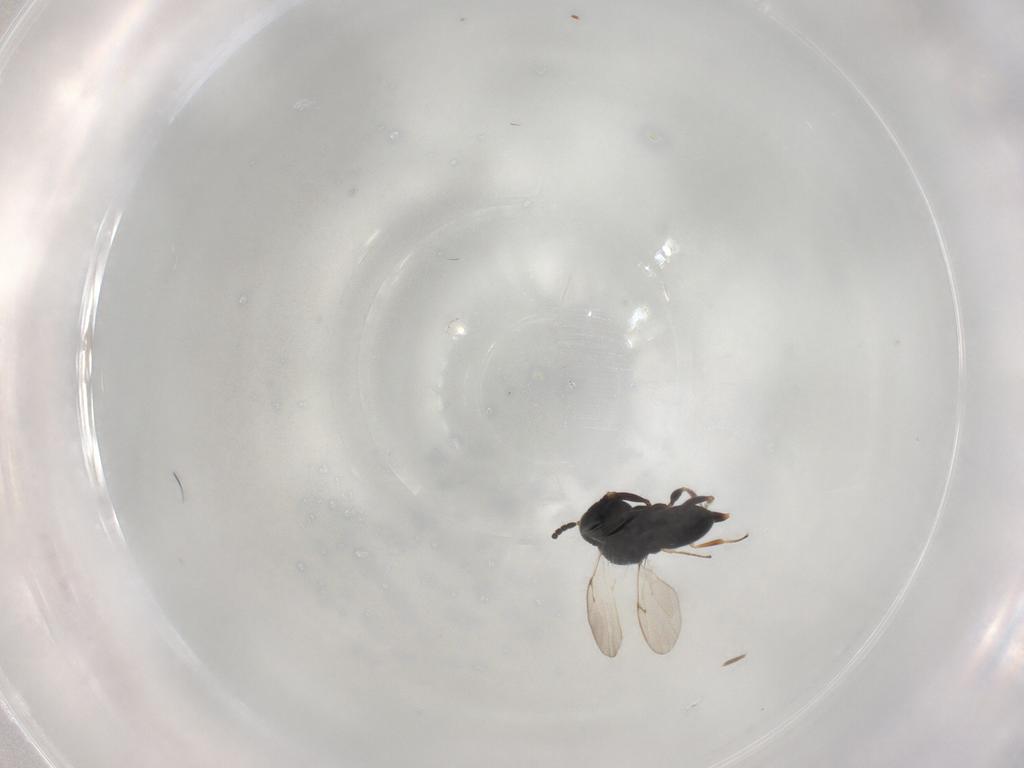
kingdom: Animalia
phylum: Arthropoda
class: Insecta
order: Hymenoptera
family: Scelionidae
